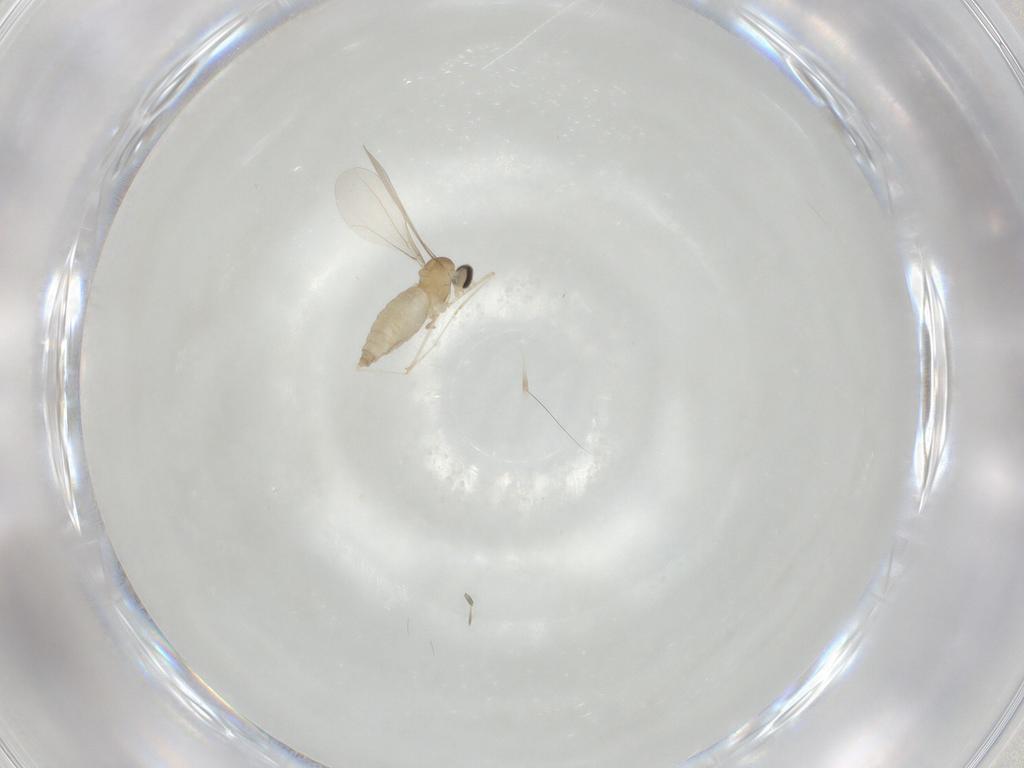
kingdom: Animalia
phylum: Arthropoda
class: Insecta
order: Diptera
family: Cecidomyiidae
